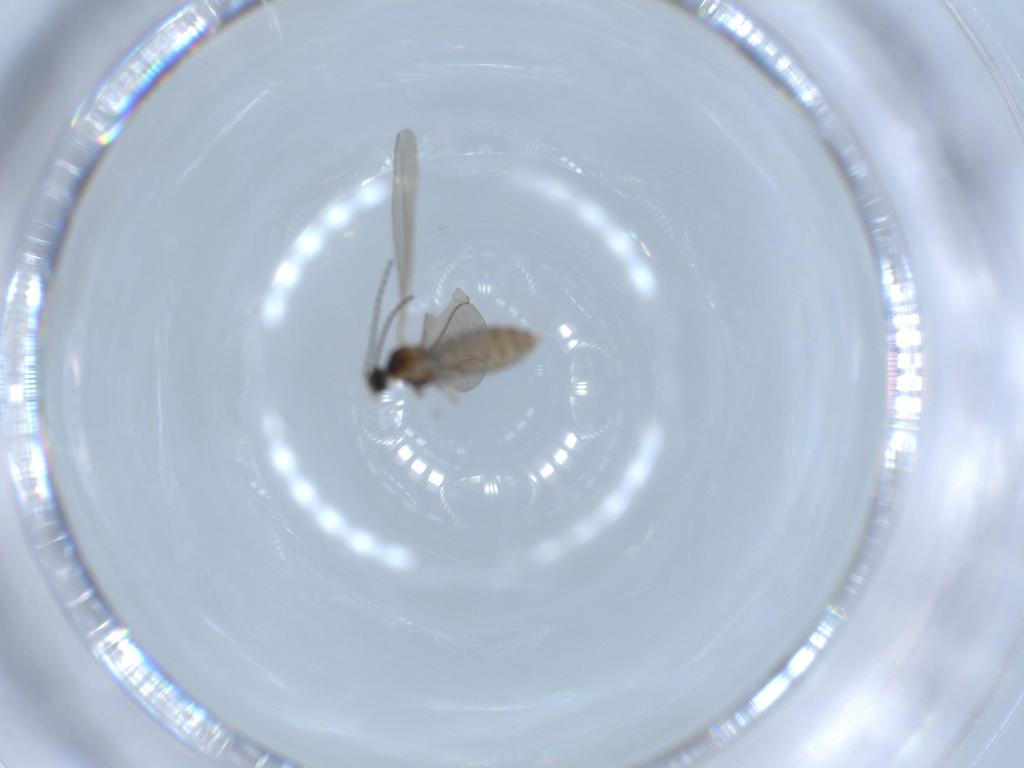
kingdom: Animalia
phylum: Arthropoda
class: Insecta
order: Diptera
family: Cecidomyiidae
